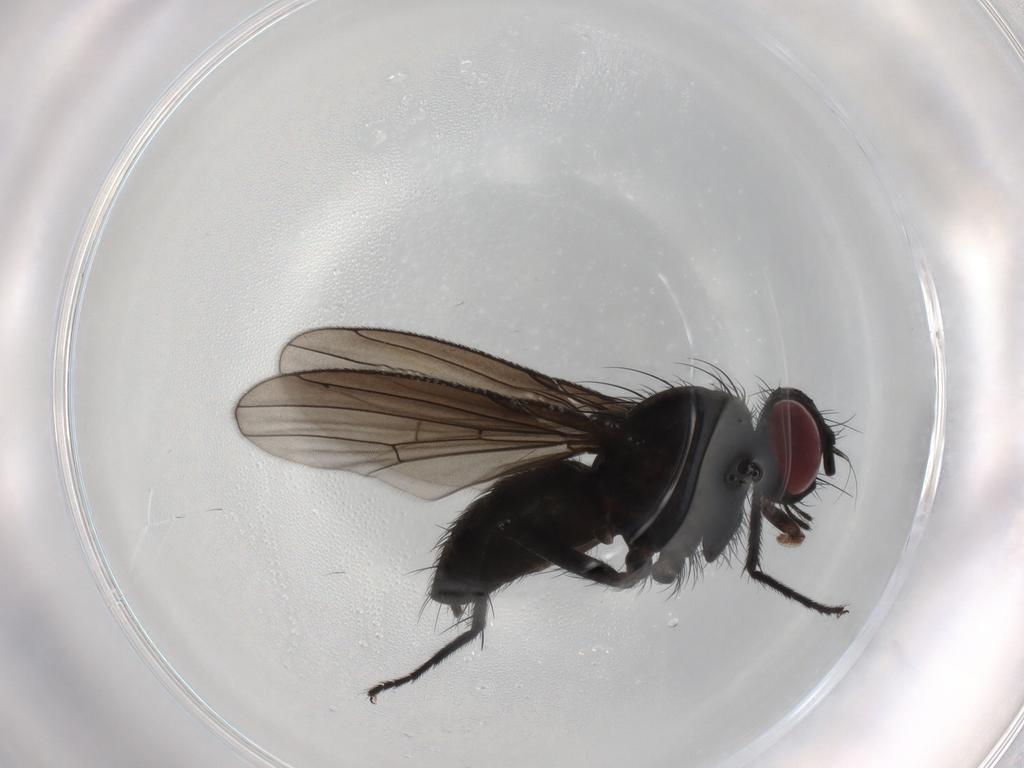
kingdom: Animalia
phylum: Arthropoda
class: Insecta
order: Diptera
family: Muscidae
